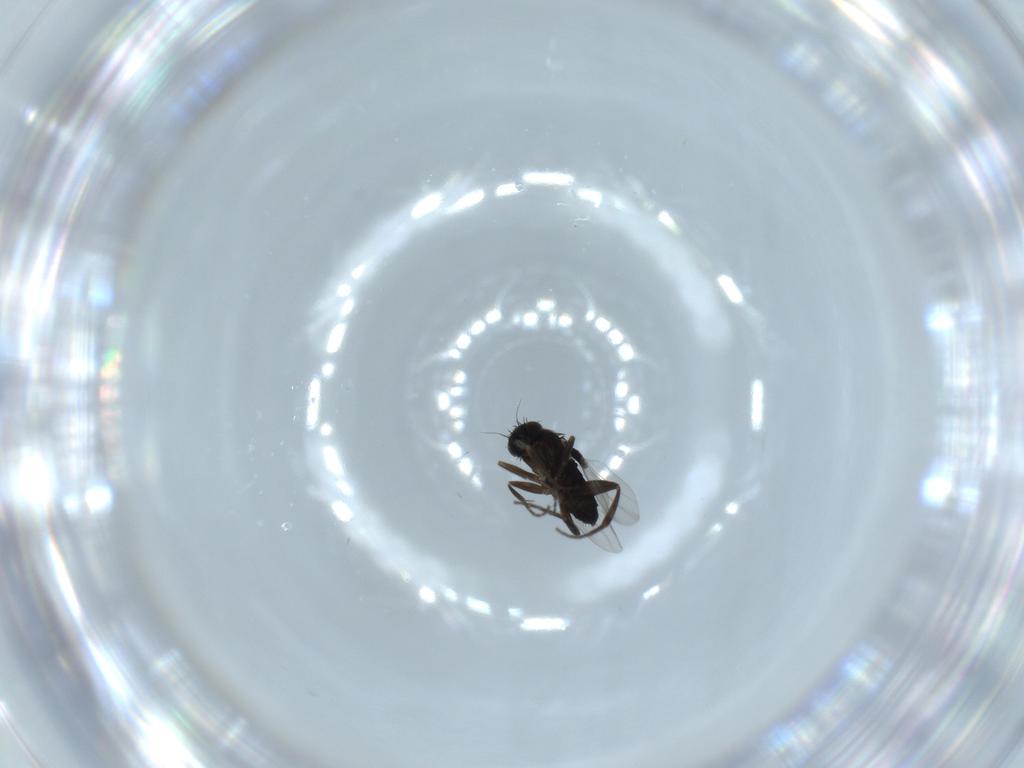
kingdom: Animalia
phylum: Arthropoda
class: Insecta
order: Diptera
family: Phoridae
